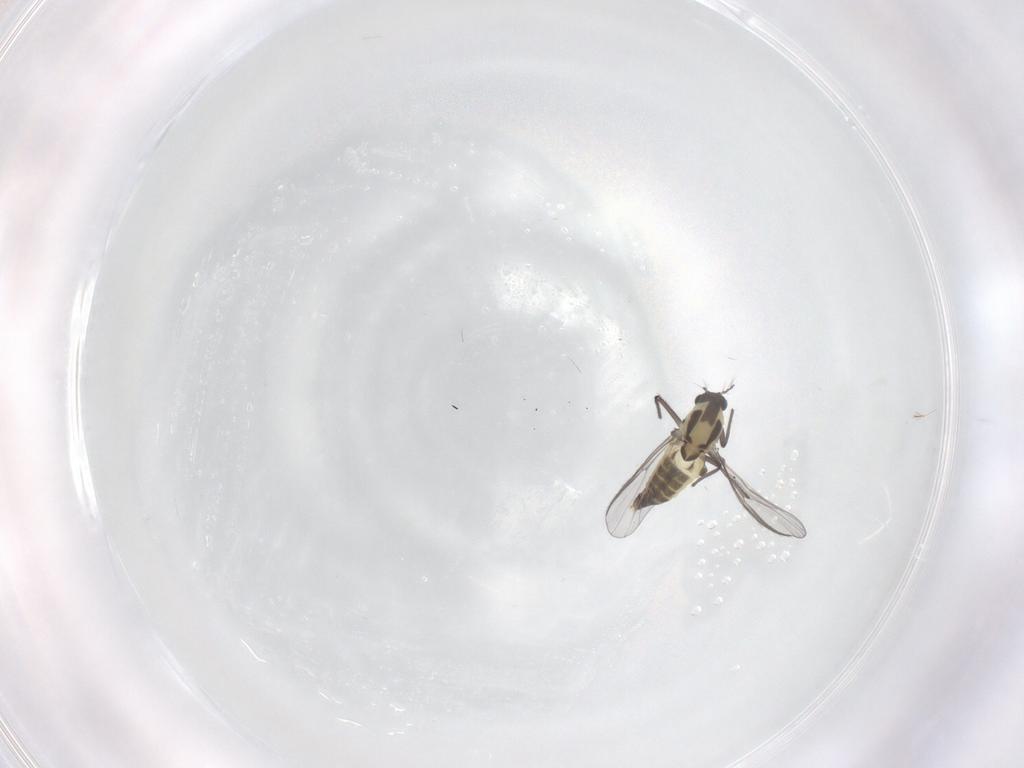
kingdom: Animalia
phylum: Arthropoda
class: Insecta
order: Diptera
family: Chironomidae
